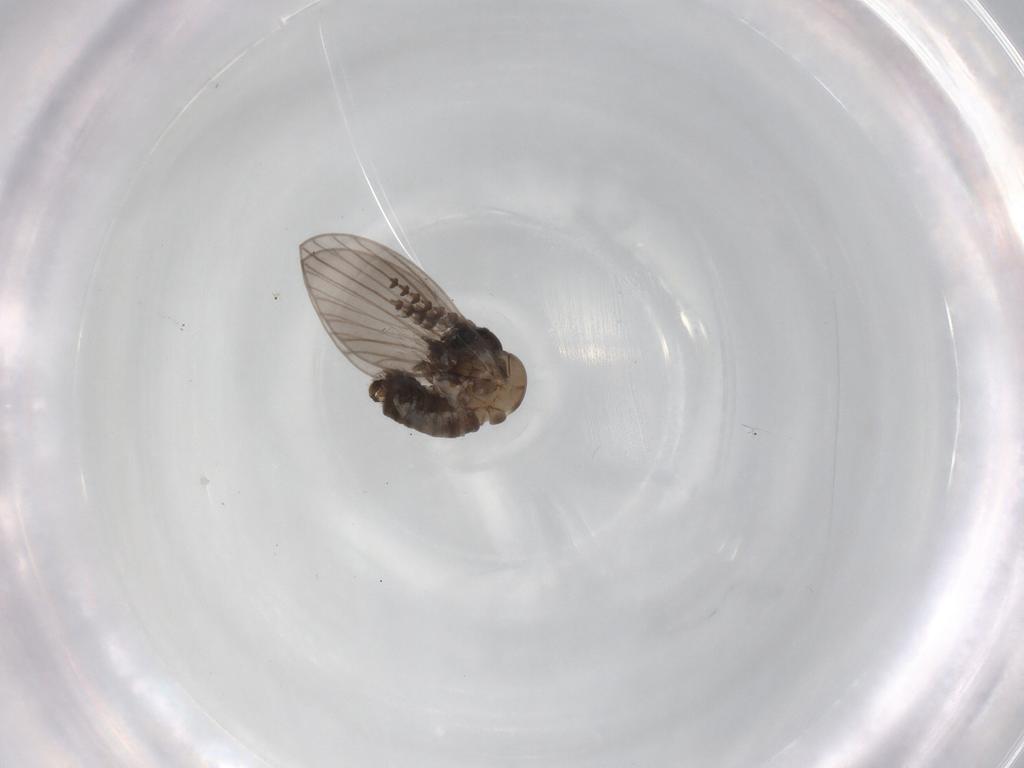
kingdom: Animalia
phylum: Arthropoda
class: Insecta
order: Diptera
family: Psychodidae
